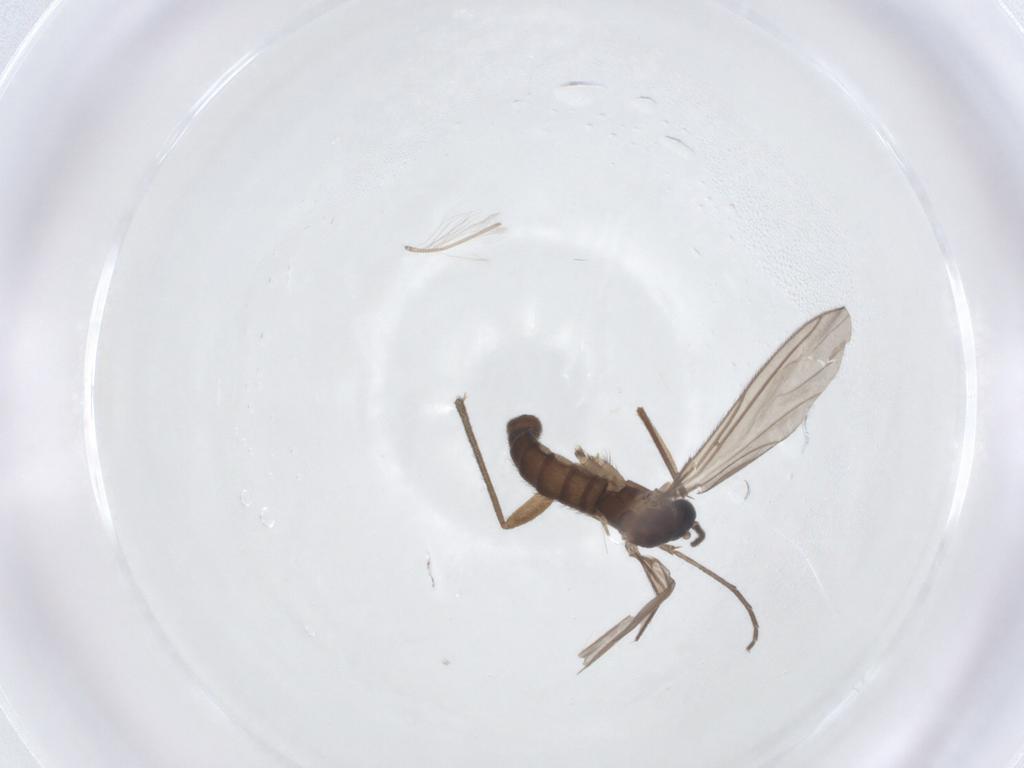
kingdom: Animalia
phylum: Arthropoda
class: Insecta
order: Diptera
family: Sciaridae
